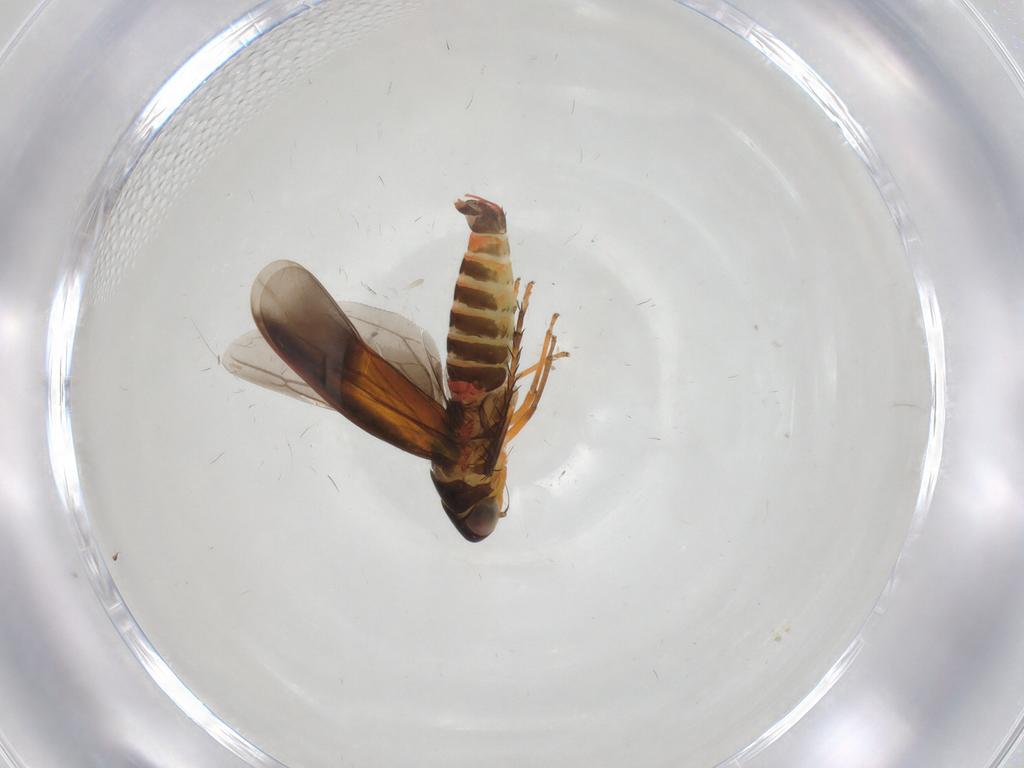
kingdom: Animalia
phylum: Arthropoda
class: Insecta
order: Hemiptera
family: Cicadellidae
